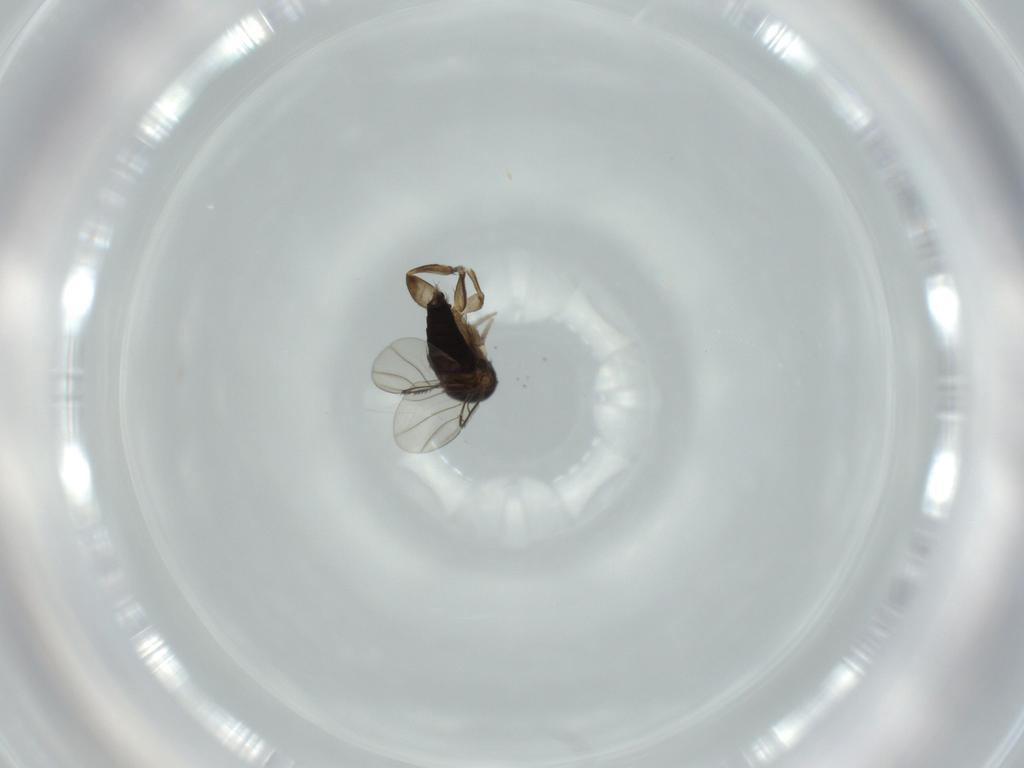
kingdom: Animalia
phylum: Arthropoda
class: Insecta
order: Diptera
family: Phoridae
